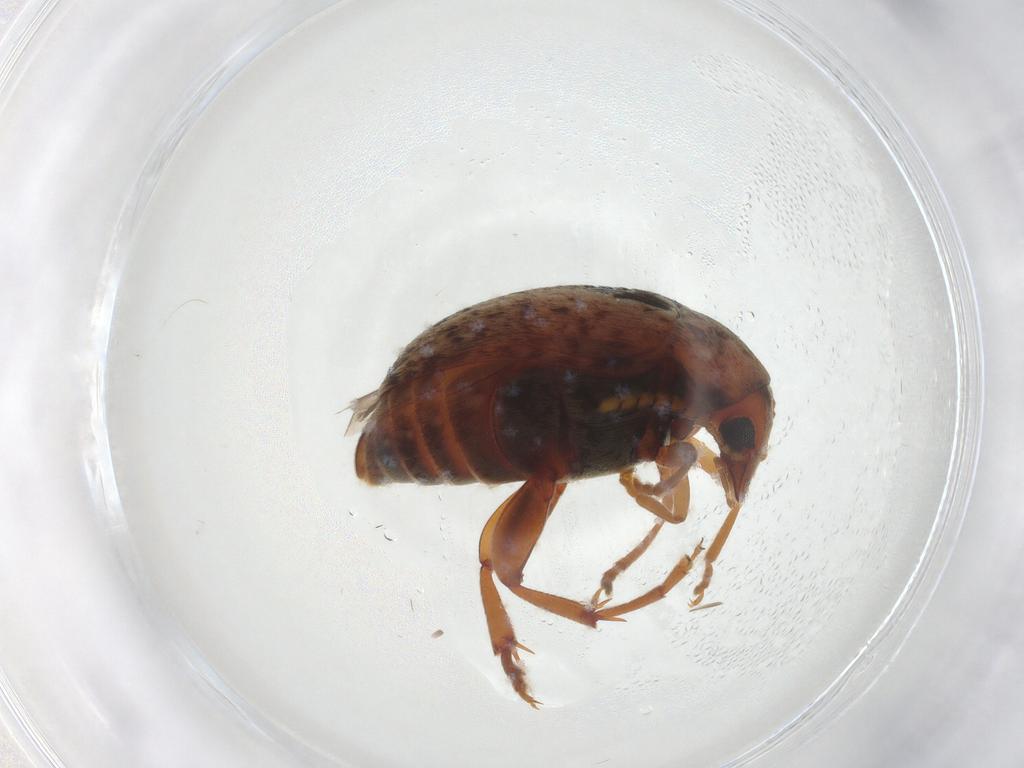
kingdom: Animalia
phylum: Arthropoda
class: Insecta
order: Coleoptera
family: Chrysomelidae
